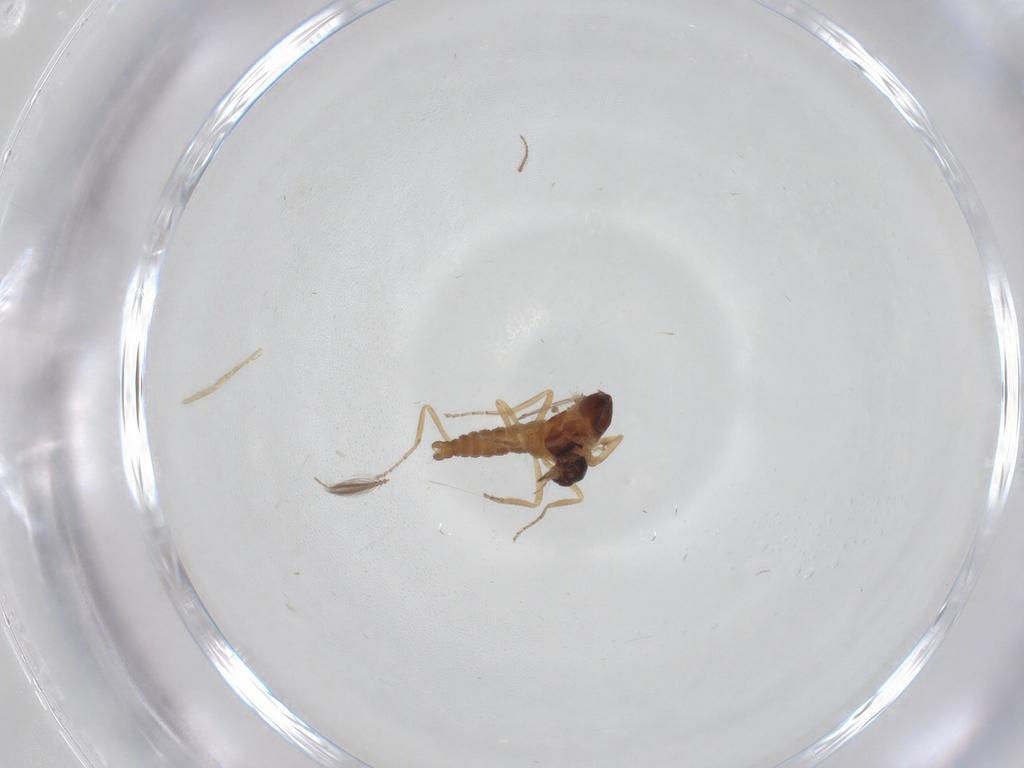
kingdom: Animalia
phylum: Arthropoda
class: Insecta
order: Diptera
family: Ceratopogonidae
